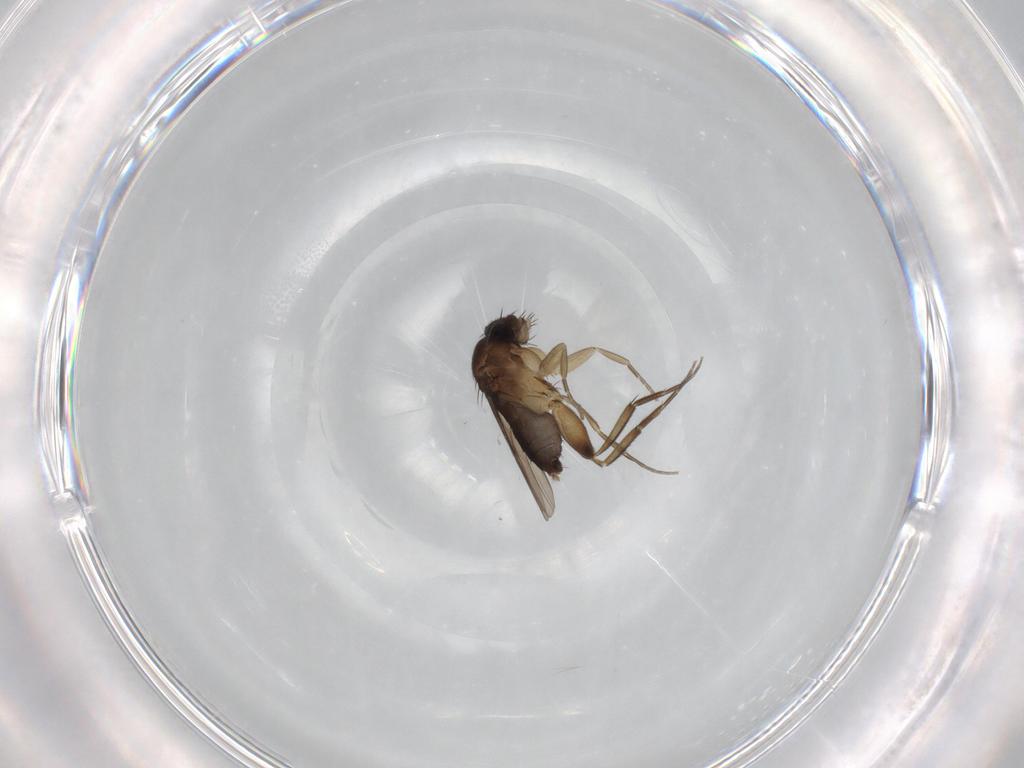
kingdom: Animalia
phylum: Arthropoda
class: Insecta
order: Diptera
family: Phoridae
